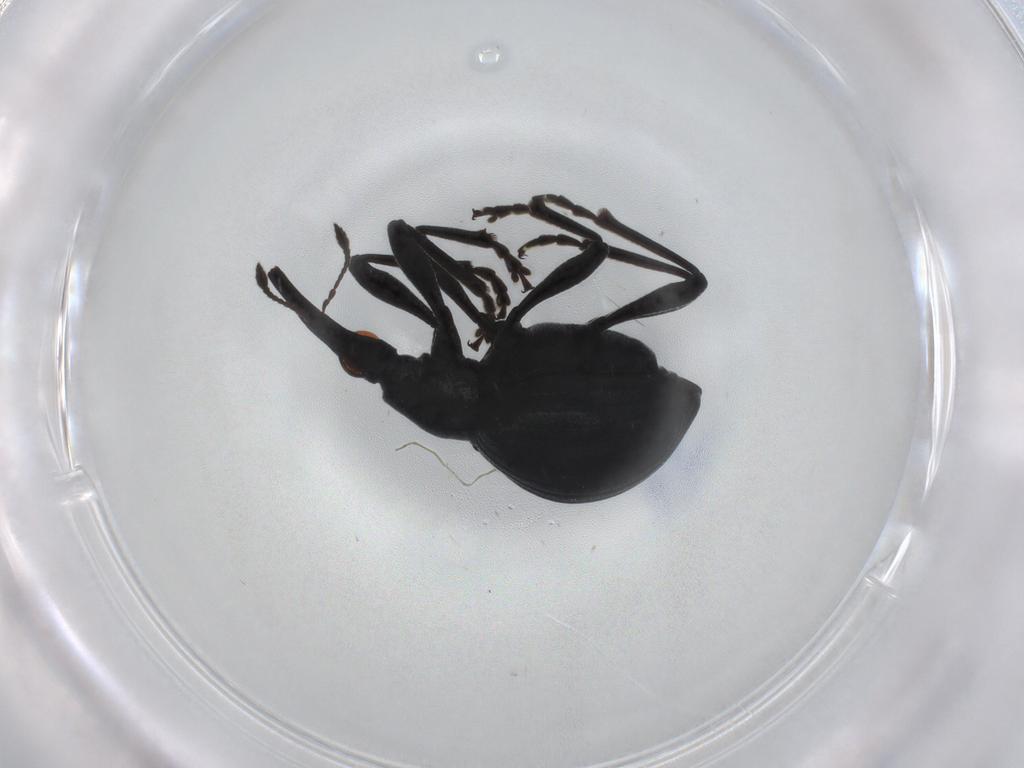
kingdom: Animalia
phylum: Arthropoda
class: Insecta
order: Coleoptera
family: Brentidae
